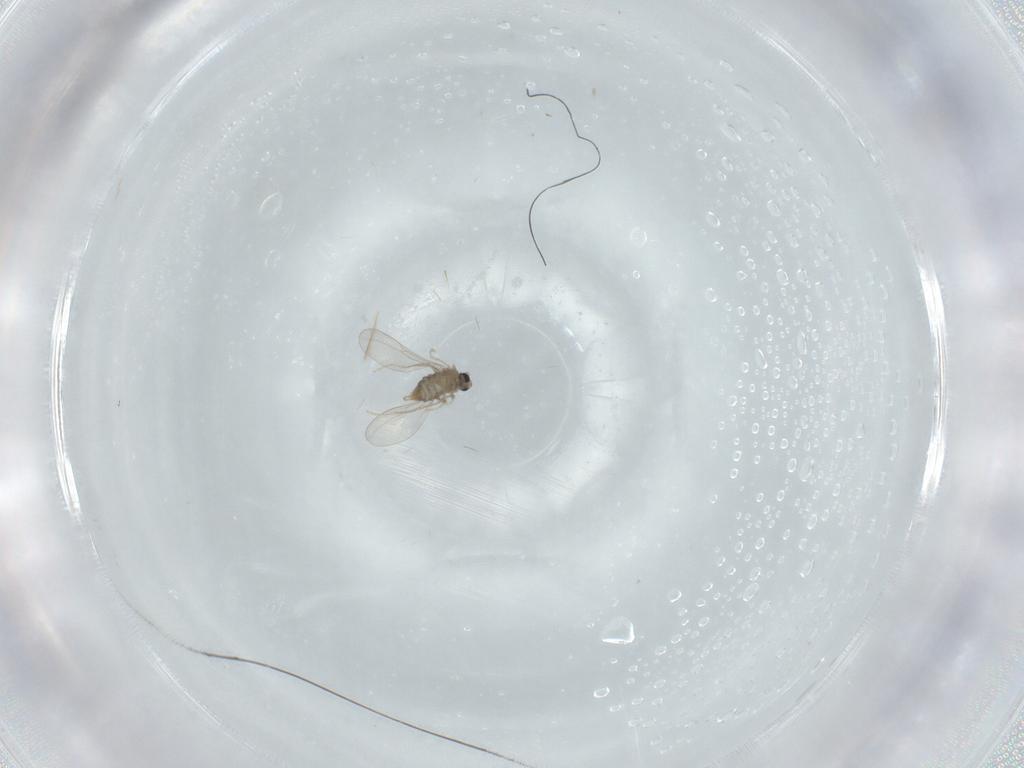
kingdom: Animalia
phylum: Arthropoda
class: Insecta
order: Diptera
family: Cecidomyiidae
